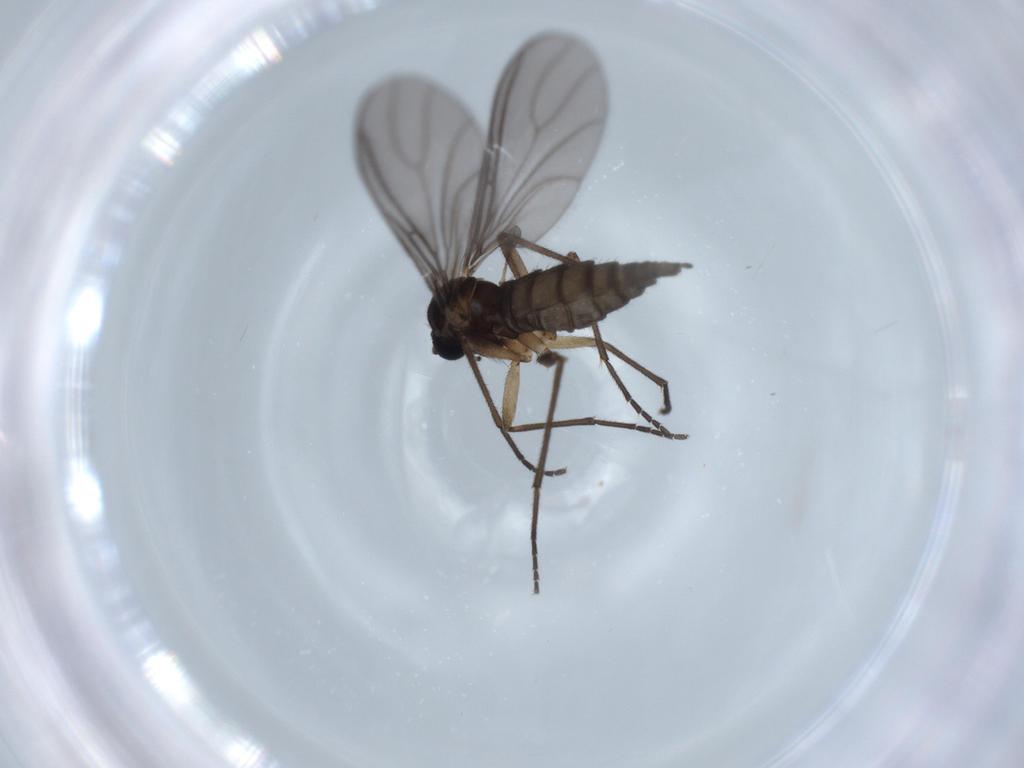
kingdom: Animalia
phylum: Arthropoda
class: Insecta
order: Diptera
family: Sciaridae
